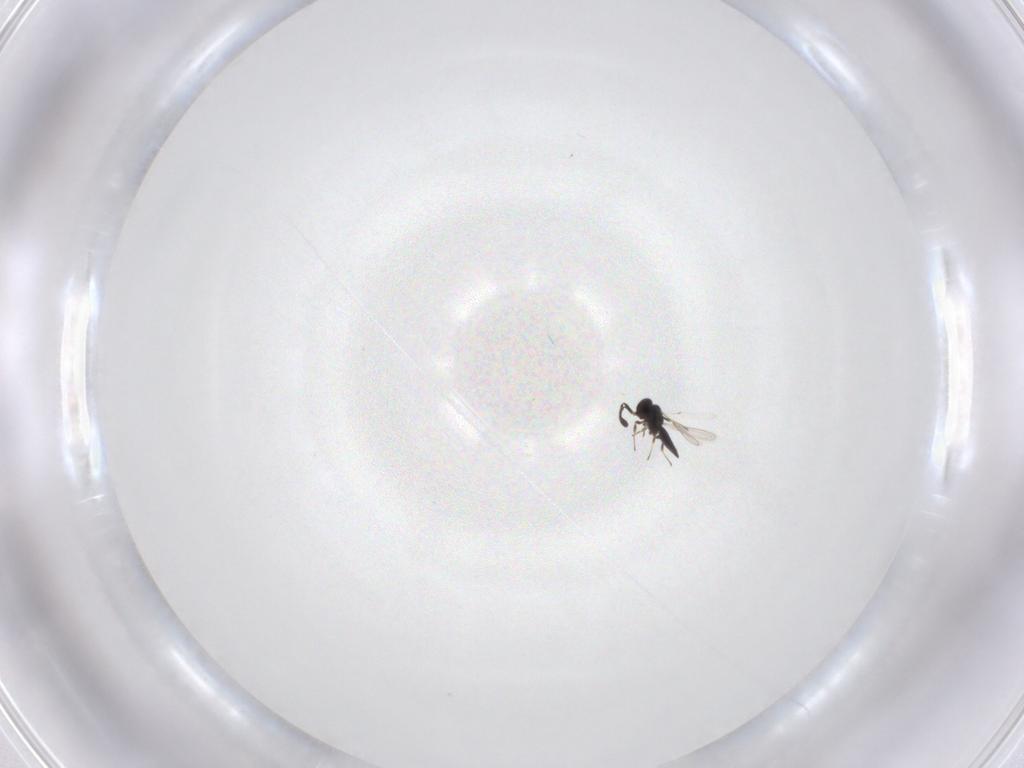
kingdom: Animalia
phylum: Arthropoda
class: Insecta
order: Hymenoptera
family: Scelionidae
